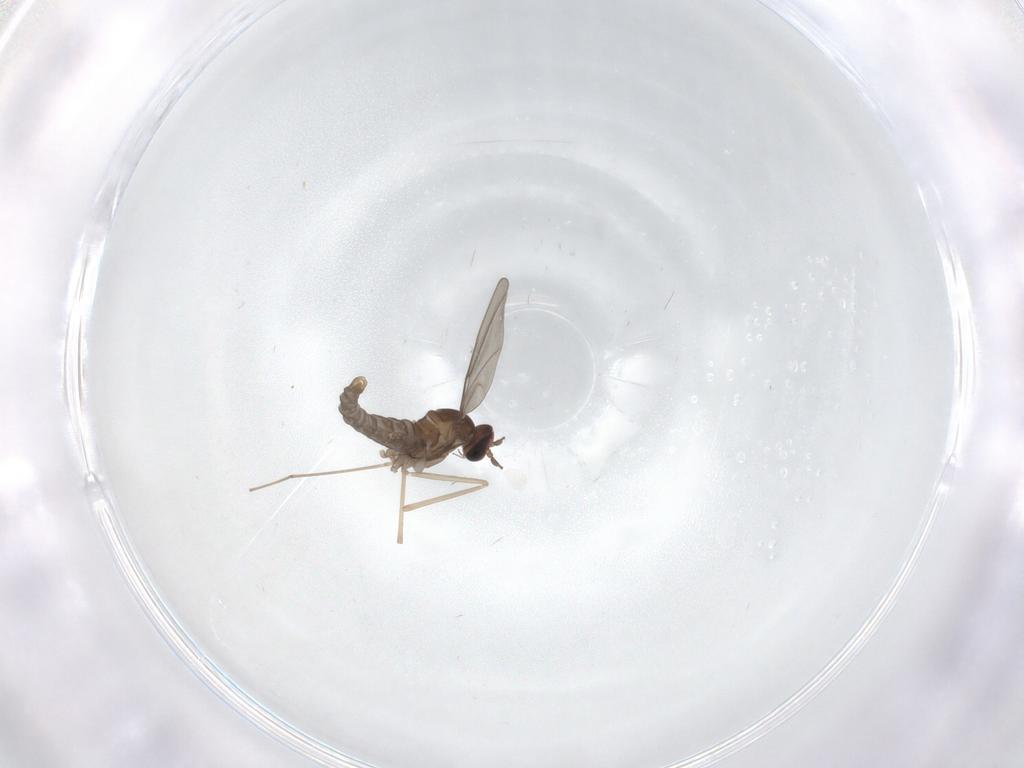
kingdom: Animalia
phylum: Arthropoda
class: Insecta
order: Diptera
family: Cecidomyiidae
